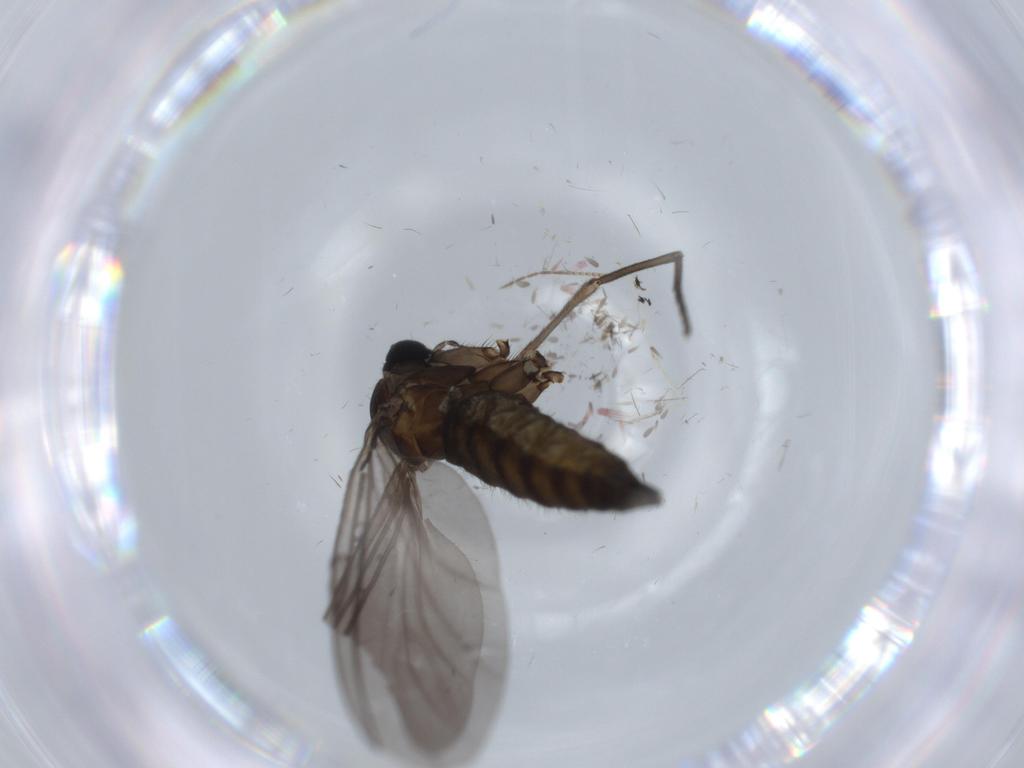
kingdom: Animalia
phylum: Arthropoda
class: Insecta
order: Diptera
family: Sciaridae
